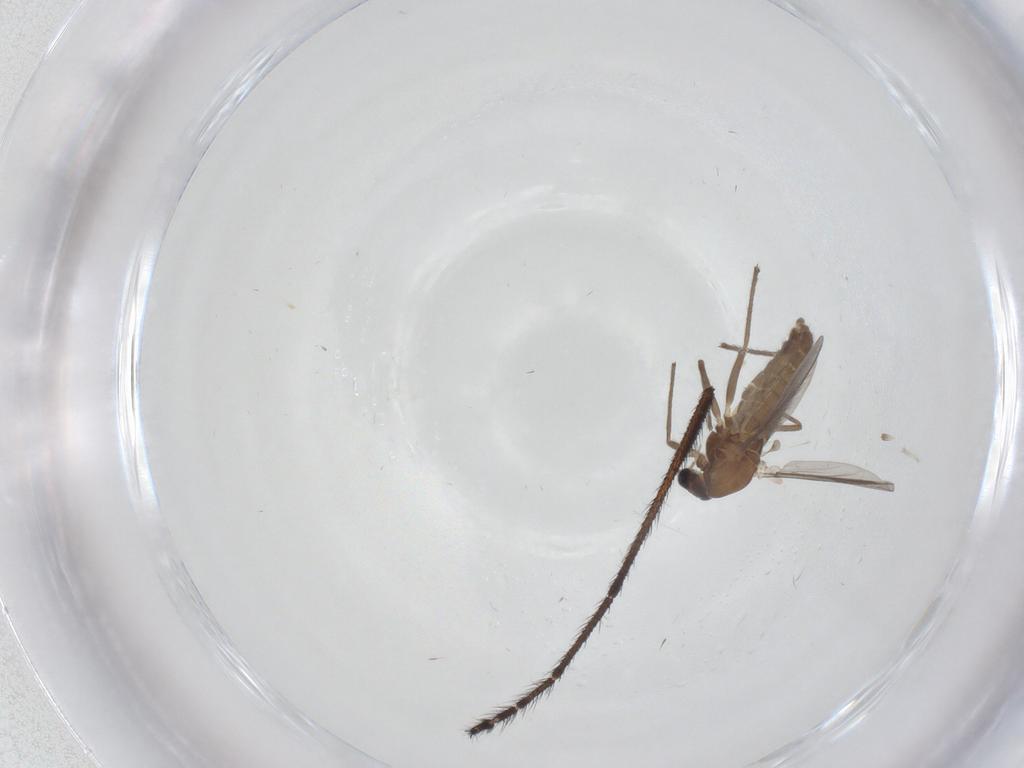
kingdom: Animalia
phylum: Arthropoda
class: Insecta
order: Diptera
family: Chironomidae
